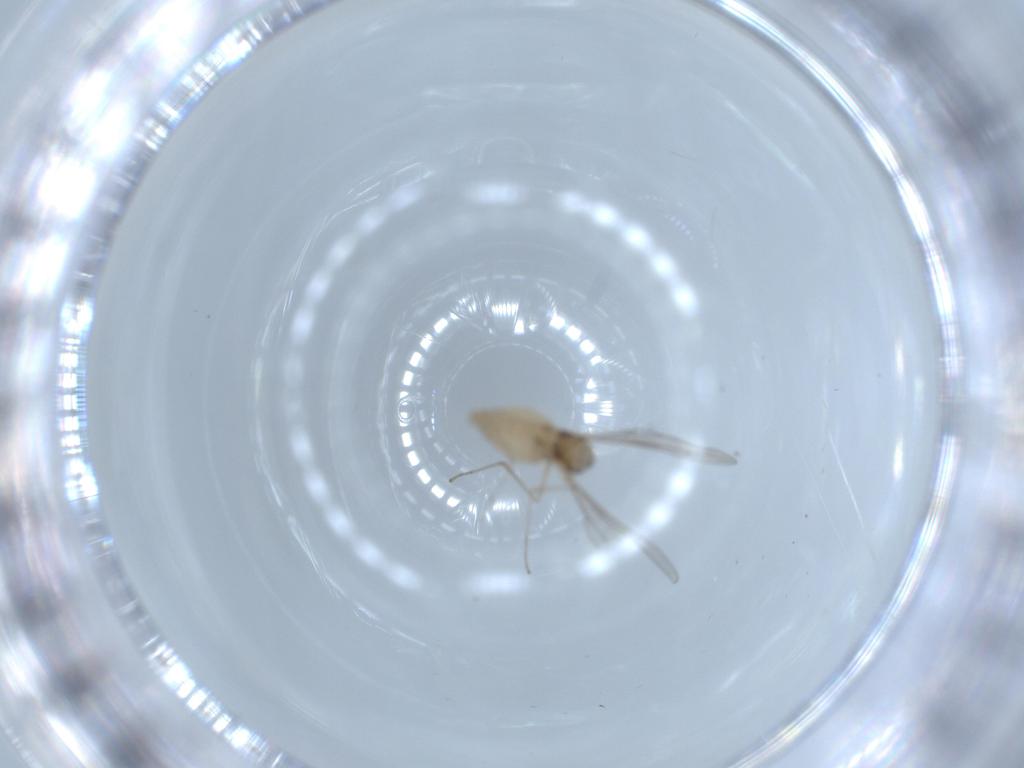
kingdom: Animalia
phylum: Arthropoda
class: Insecta
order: Diptera
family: Cecidomyiidae
